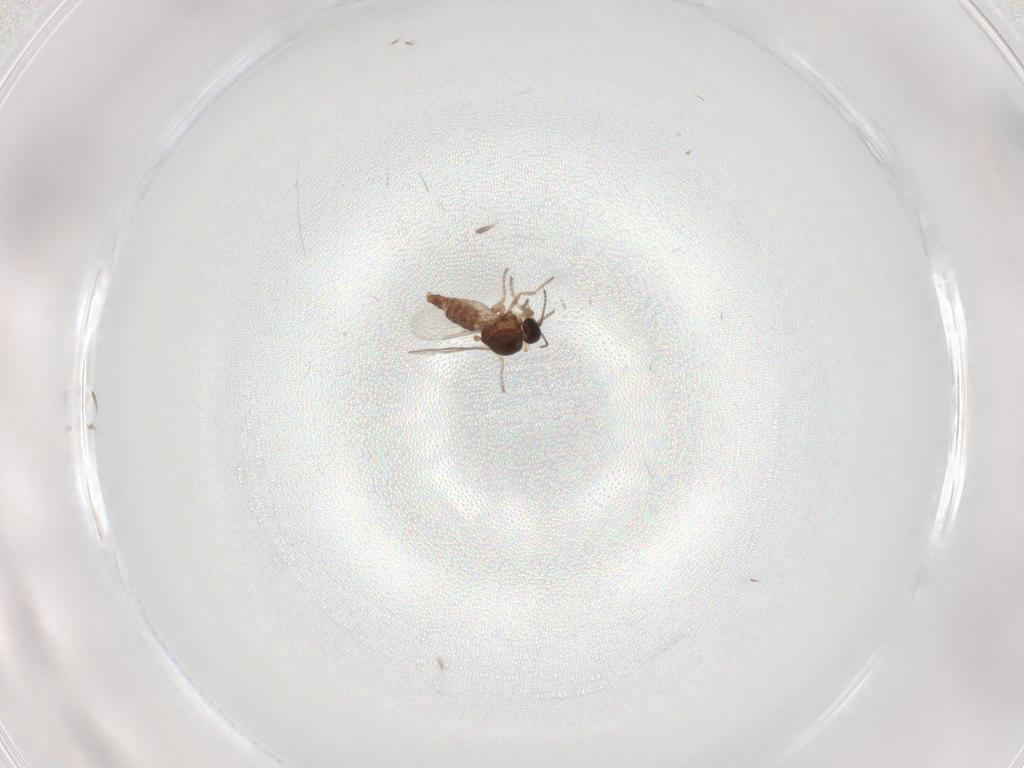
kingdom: Animalia
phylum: Arthropoda
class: Insecta
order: Diptera
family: Ceratopogonidae
